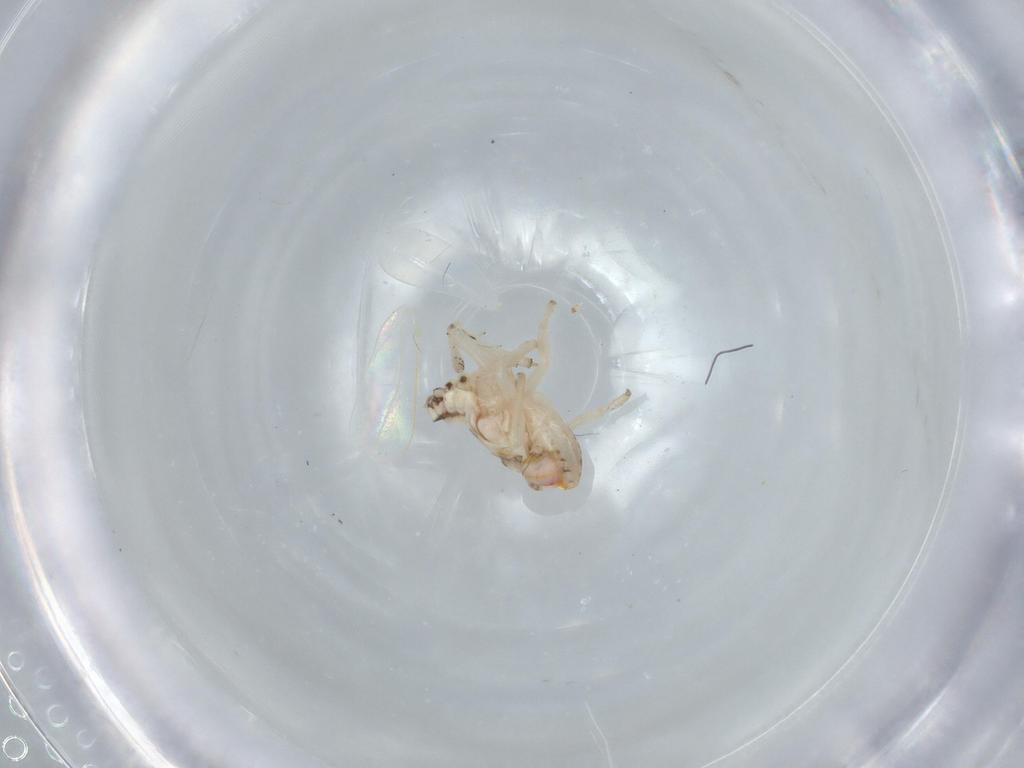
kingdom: Animalia
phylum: Arthropoda
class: Insecta
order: Hemiptera
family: Aleyrodidae
